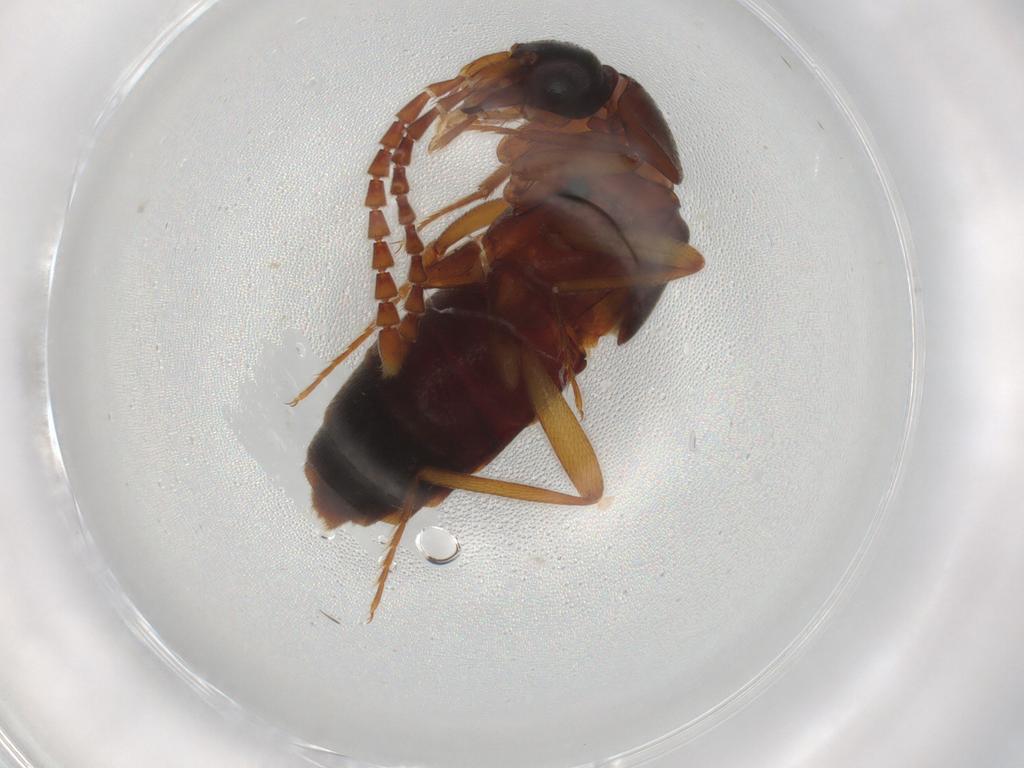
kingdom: Animalia
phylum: Arthropoda
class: Insecta
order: Coleoptera
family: Staphylinidae
